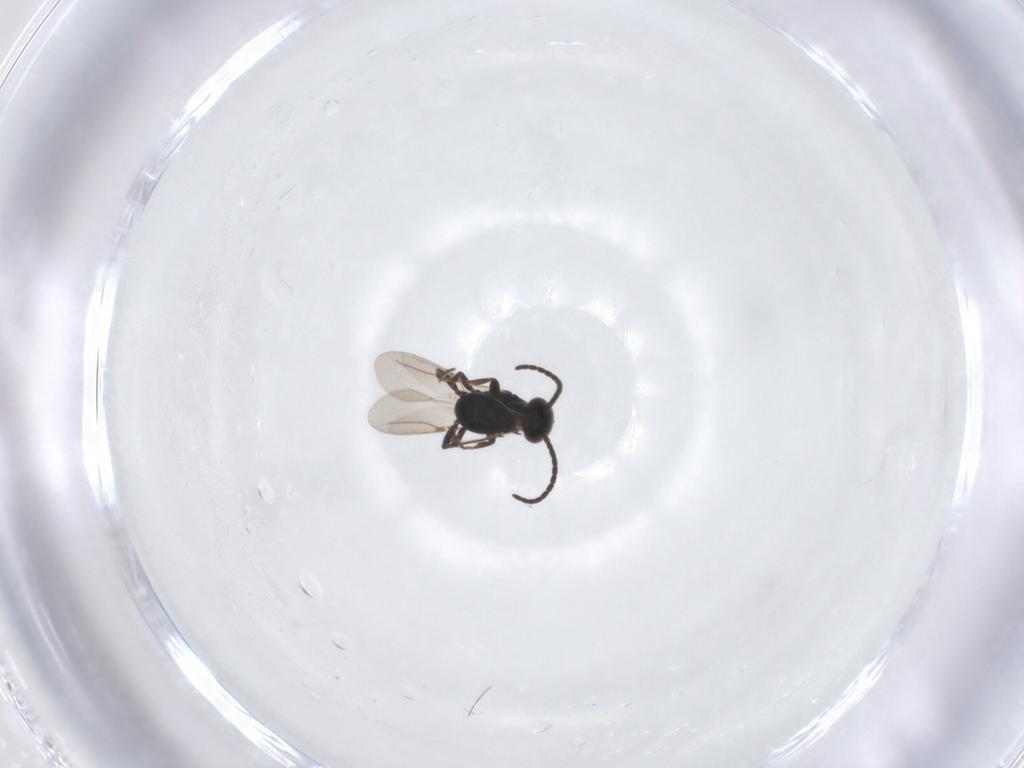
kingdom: Animalia
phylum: Arthropoda
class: Insecta
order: Hymenoptera
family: Bethylidae
